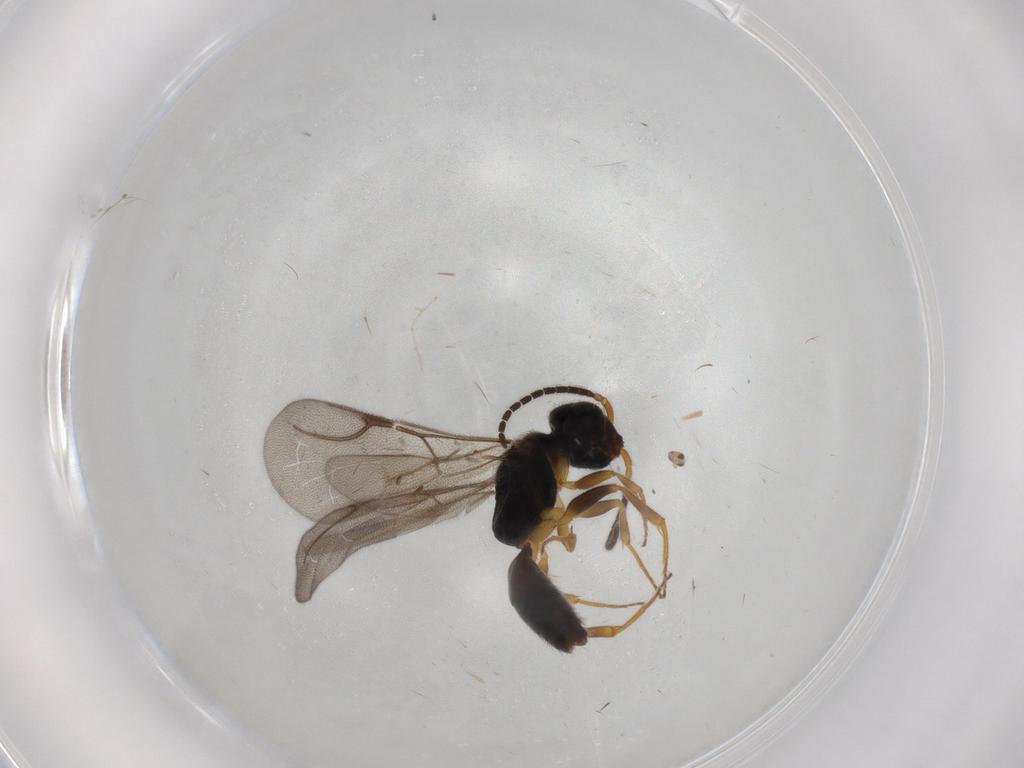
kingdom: Animalia
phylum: Arthropoda
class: Insecta
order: Hymenoptera
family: Bethylidae
